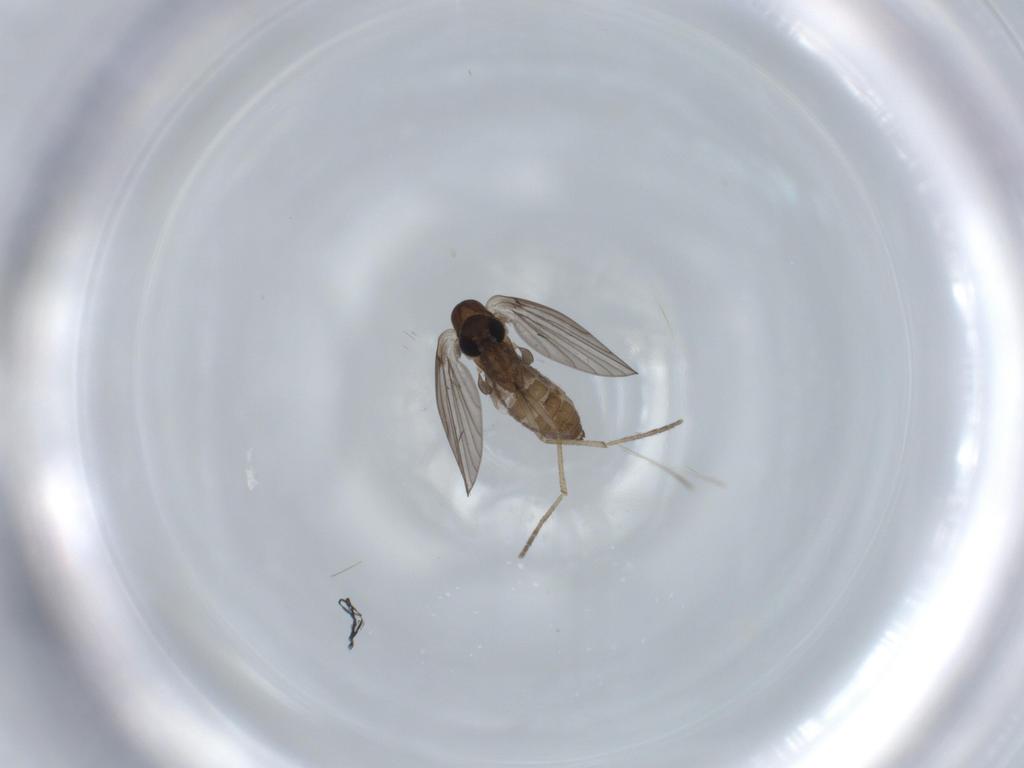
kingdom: Animalia
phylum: Arthropoda
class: Insecta
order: Diptera
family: Psychodidae
